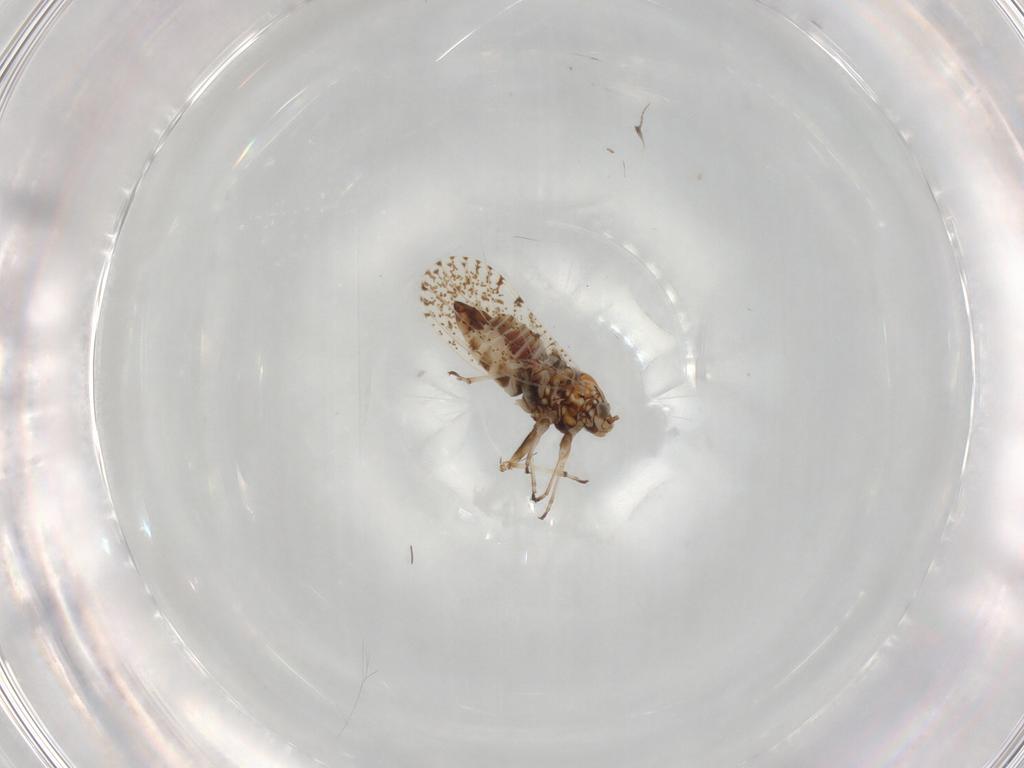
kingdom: Animalia
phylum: Arthropoda
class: Insecta
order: Diptera
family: Ceratopogonidae
